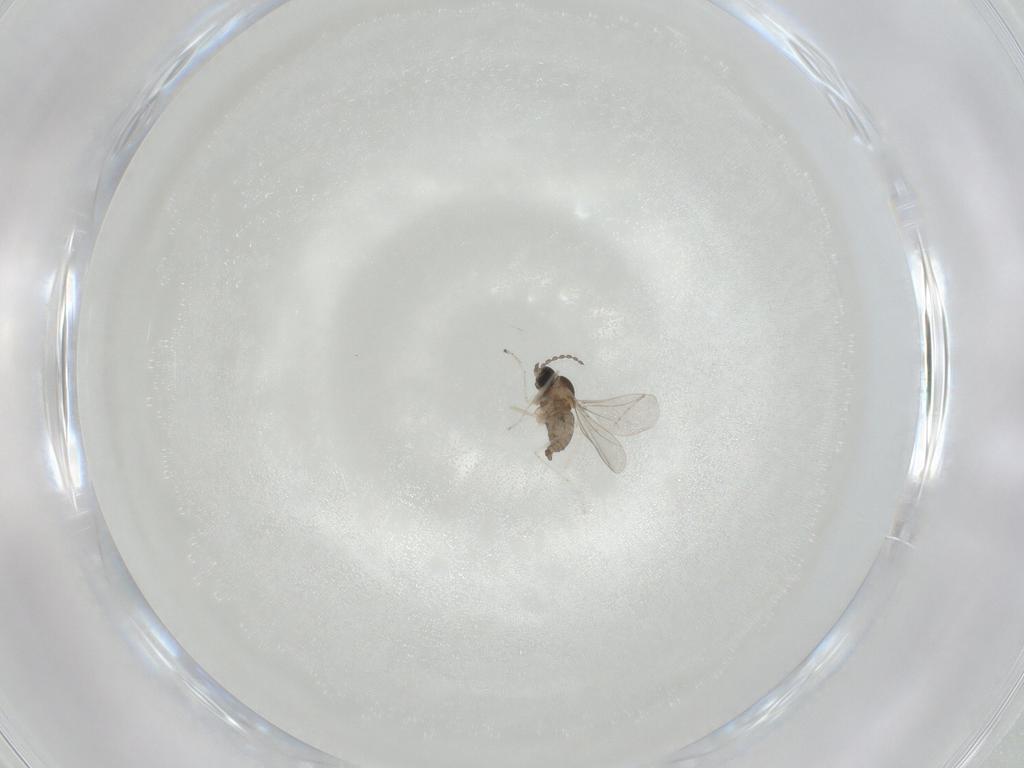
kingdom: Animalia
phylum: Arthropoda
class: Insecta
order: Diptera
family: Cecidomyiidae
